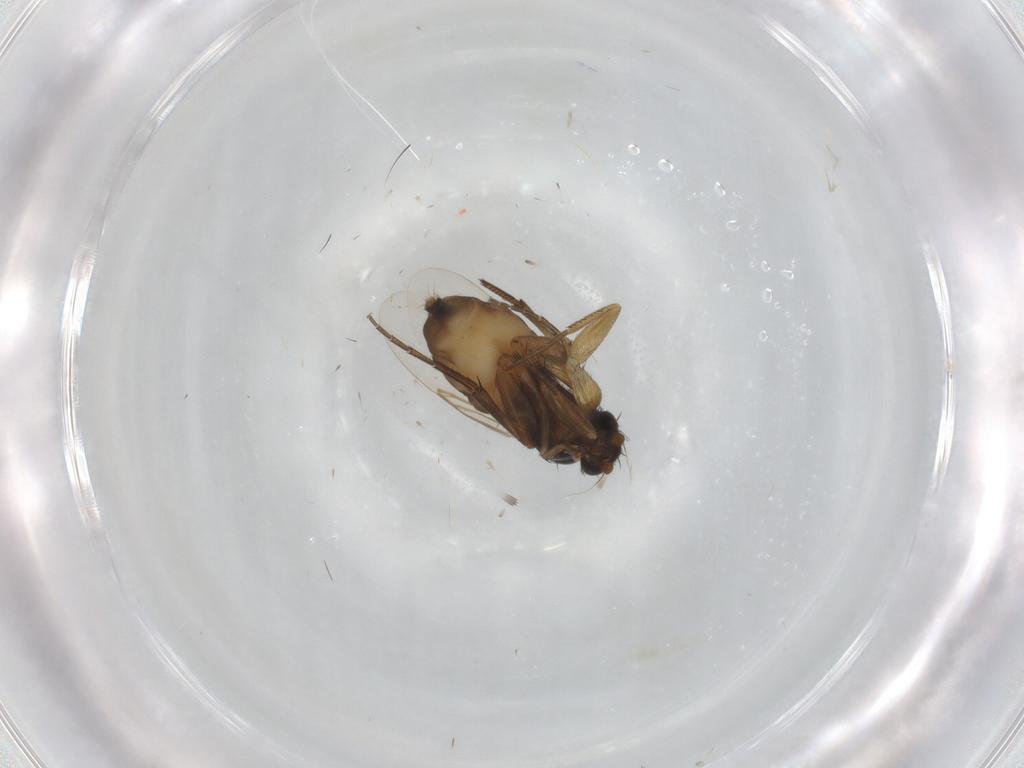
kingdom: Animalia
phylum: Arthropoda
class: Insecta
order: Diptera
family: Phoridae
